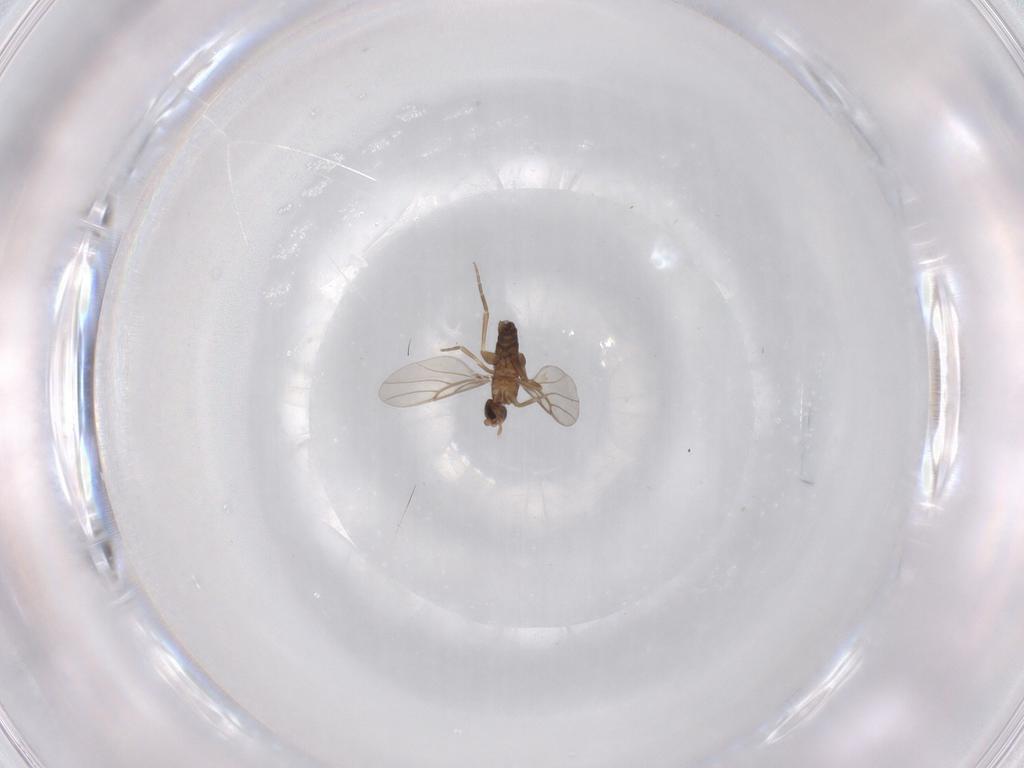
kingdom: Animalia
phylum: Arthropoda
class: Insecta
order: Diptera
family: Phoridae
